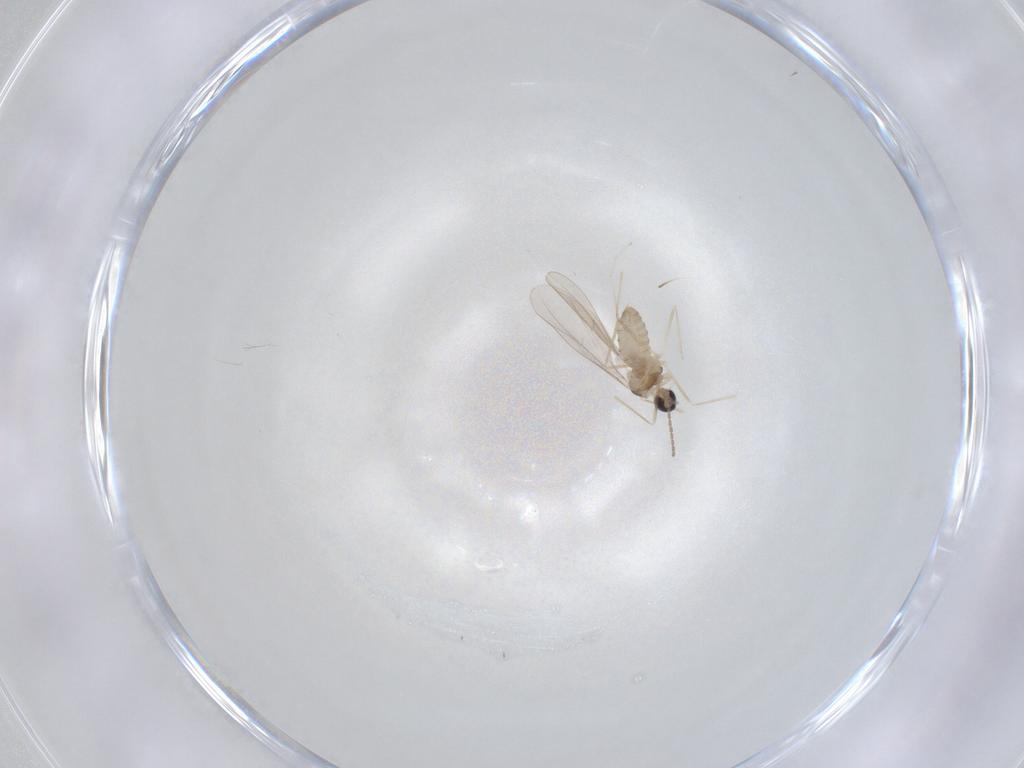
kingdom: Animalia
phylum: Arthropoda
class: Insecta
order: Diptera
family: Cecidomyiidae
